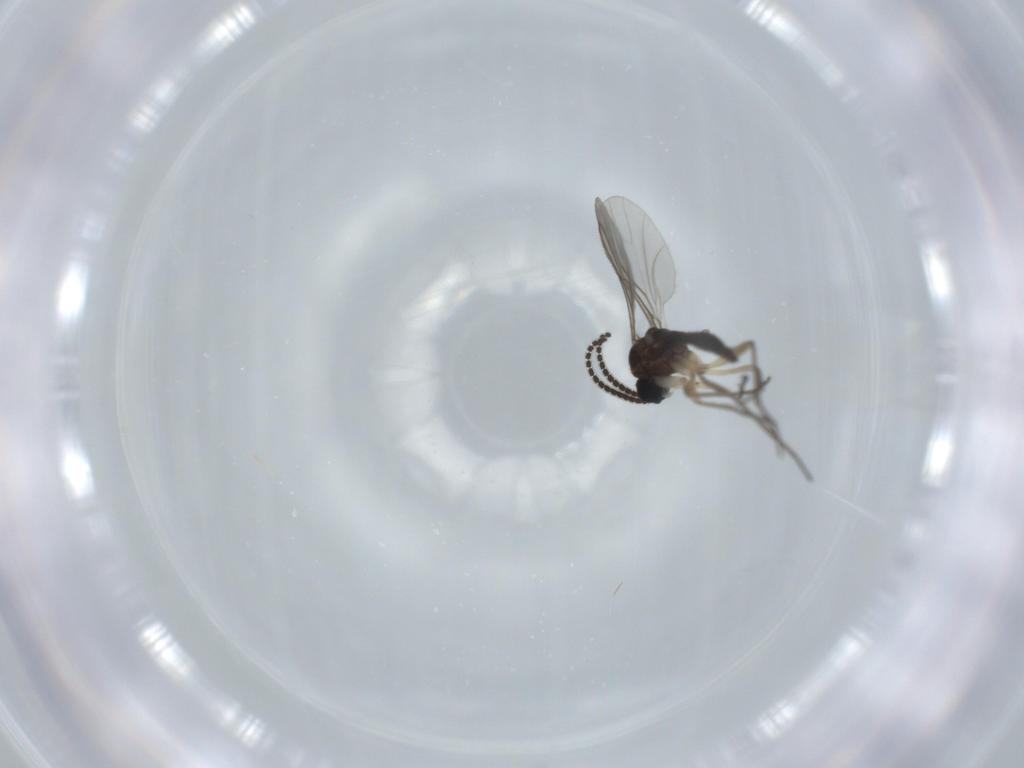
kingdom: Animalia
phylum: Arthropoda
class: Insecta
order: Diptera
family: Sciaridae
